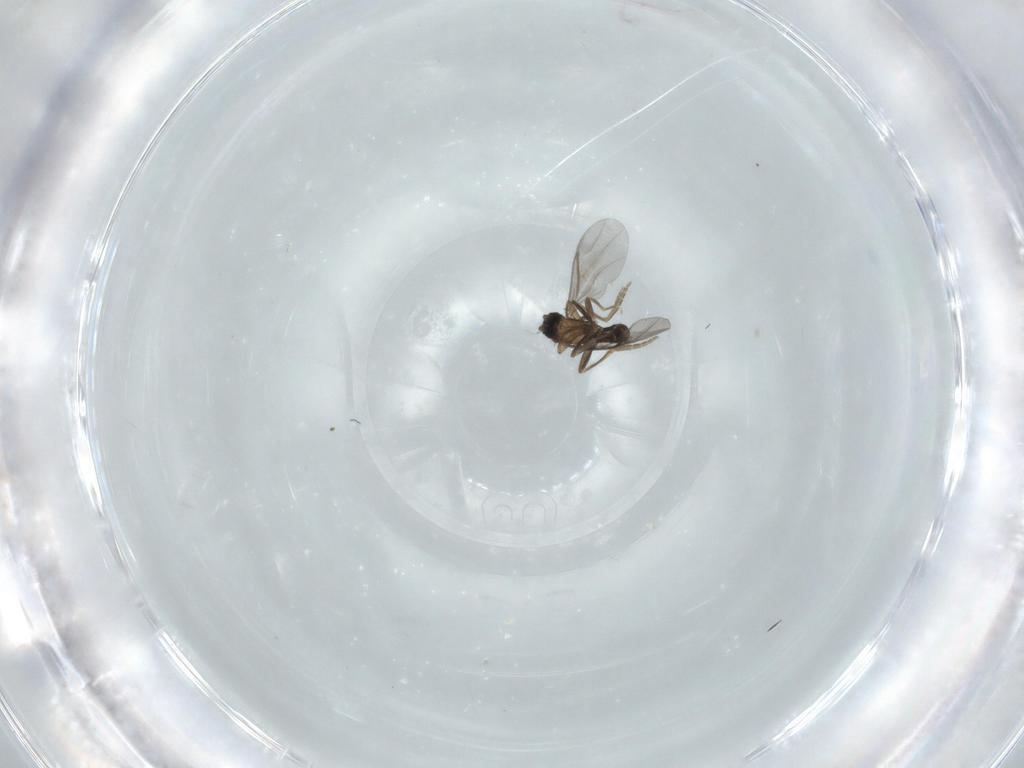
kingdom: Animalia
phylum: Arthropoda
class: Insecta
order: Diptera
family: Chironomidae
